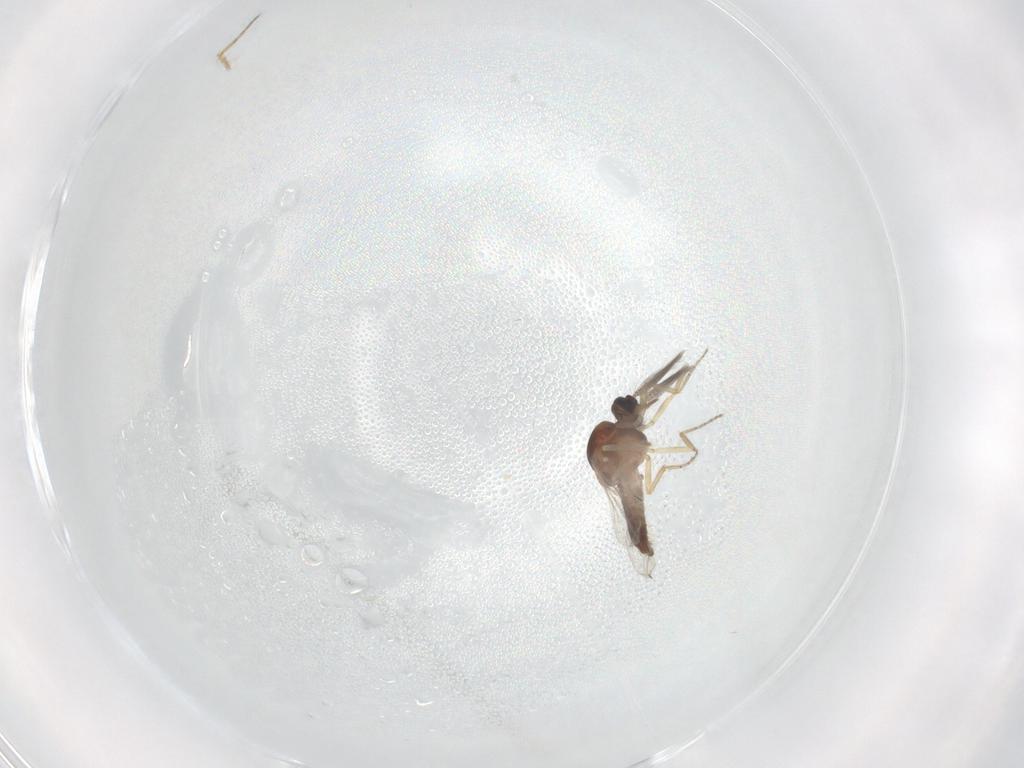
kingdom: Animalia
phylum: Arthropoda
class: Insecta
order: Diptera
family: Ceratopogonidae
